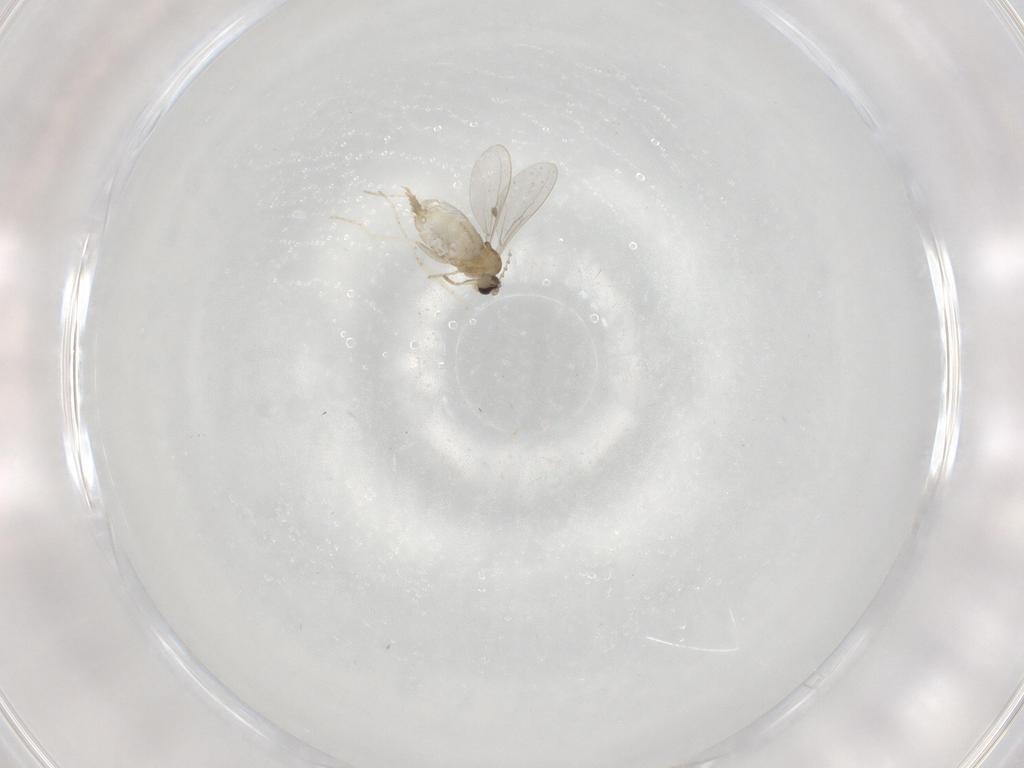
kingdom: Animalia
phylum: Arthropoda
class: Insecta
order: Diptera
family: Cecidomyiidae
